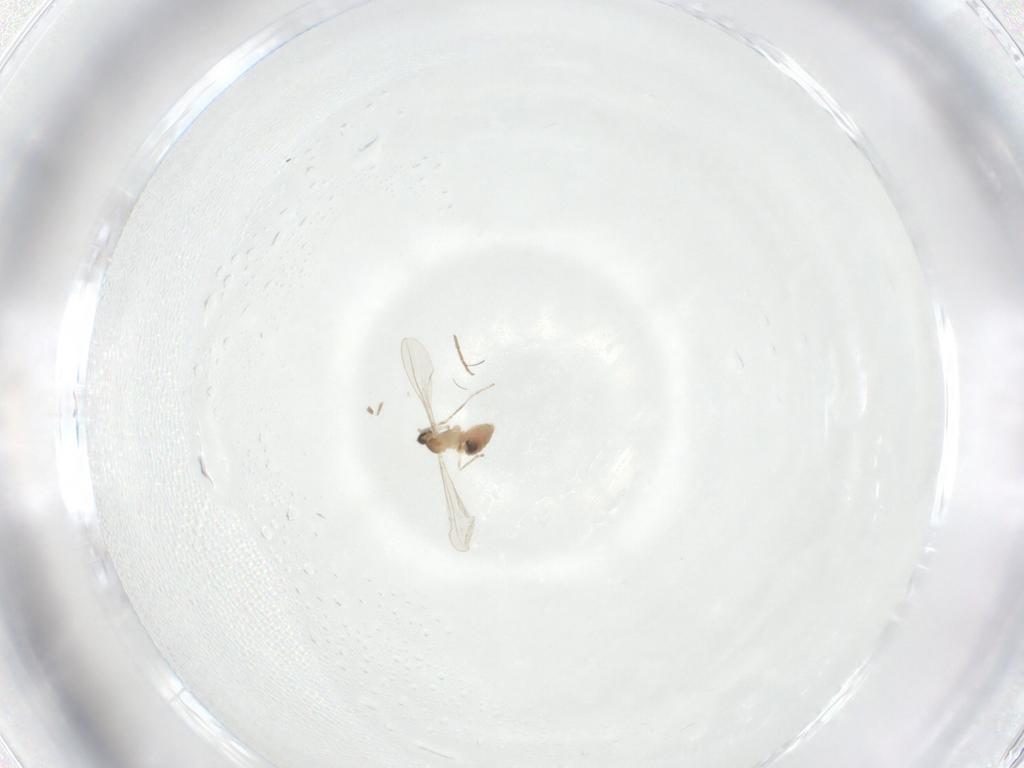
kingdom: Animalia
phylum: Arthropoda
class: Insecta
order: Diptera
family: Cecidomyiidae
